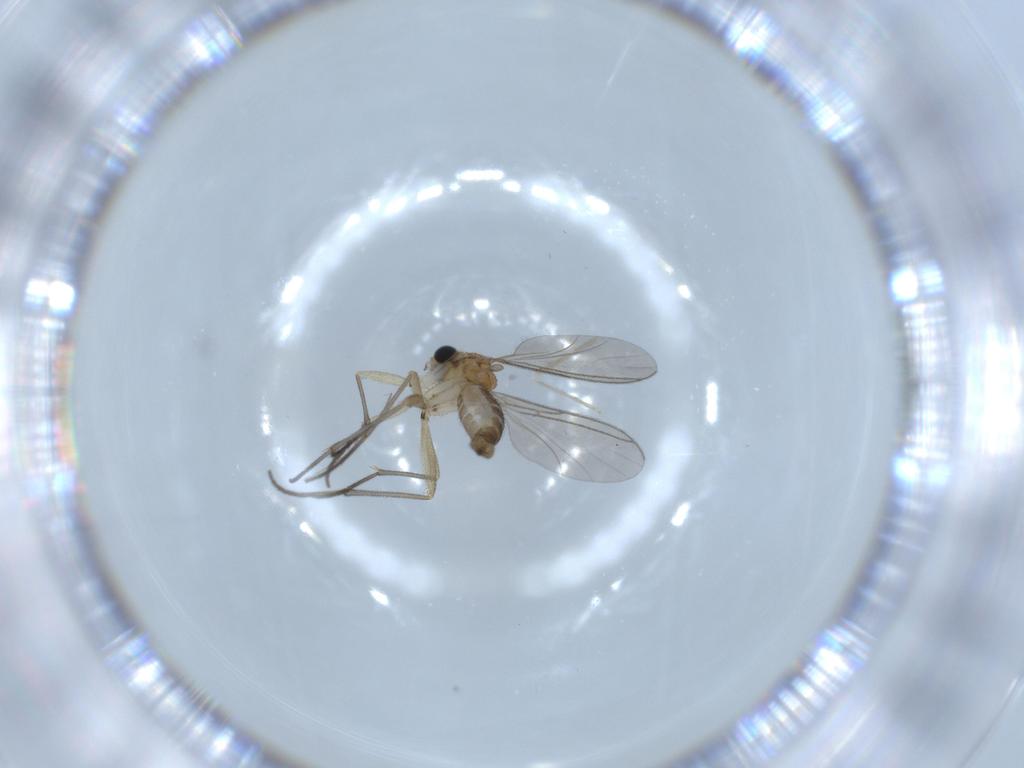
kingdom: Animalia
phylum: Arthropoda
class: Insecta
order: Diptera
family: Sciaridae
